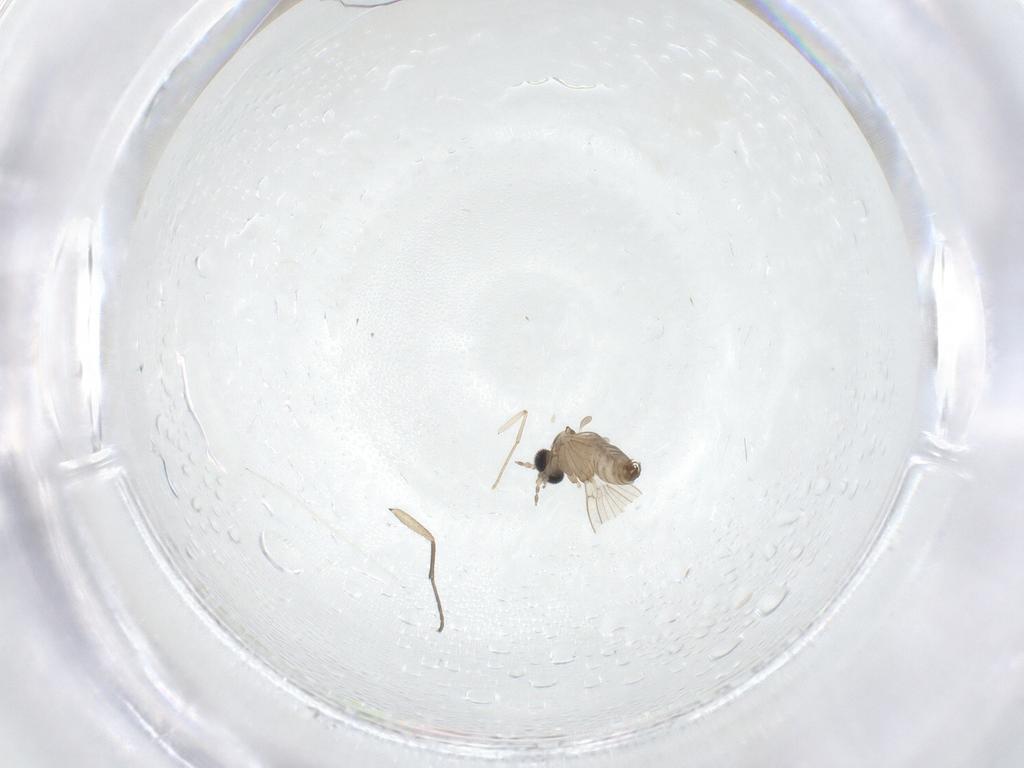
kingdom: Animalia
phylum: Arthropoda
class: Insecta
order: Diptera
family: Psychodidae
